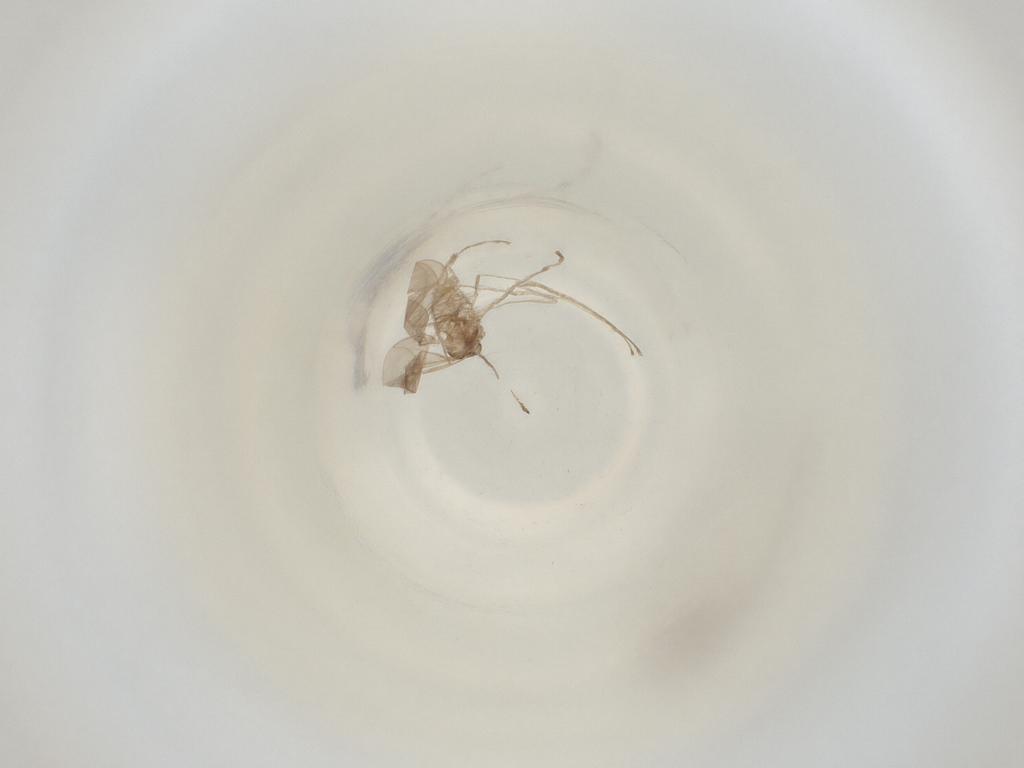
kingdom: Animalia
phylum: Arthropoda
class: Insecta
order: Diptera
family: Cecidomyiidae
